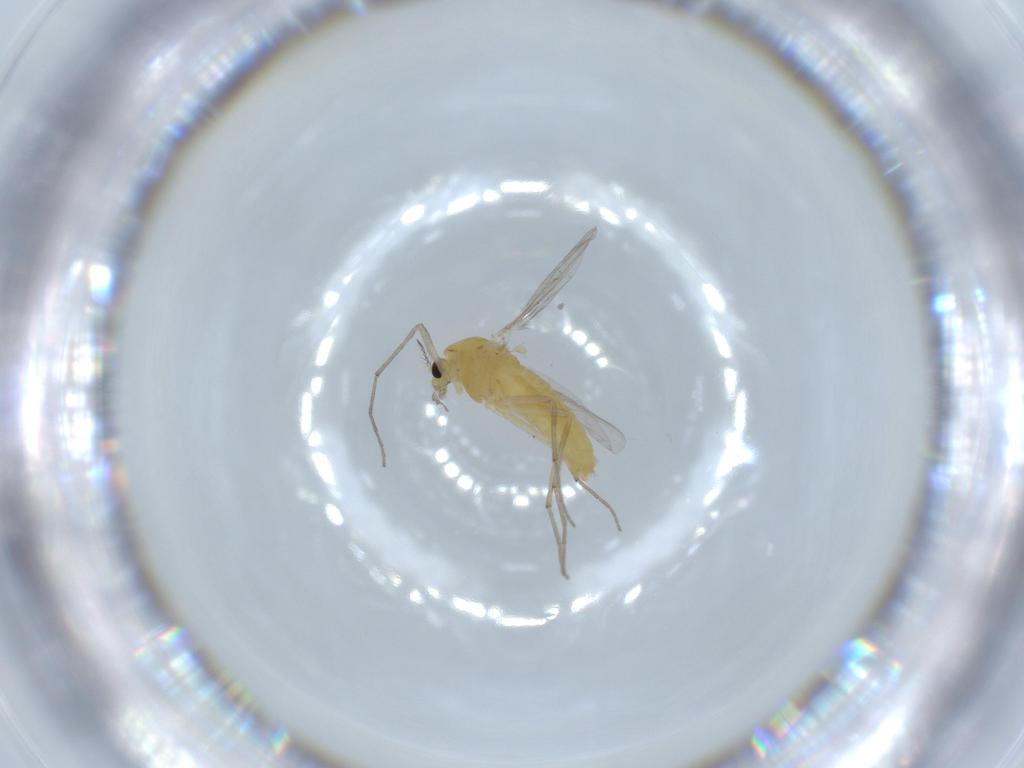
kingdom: Animalia
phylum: Arthropoda
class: Insecta
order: Diptera
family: Chironomidae
